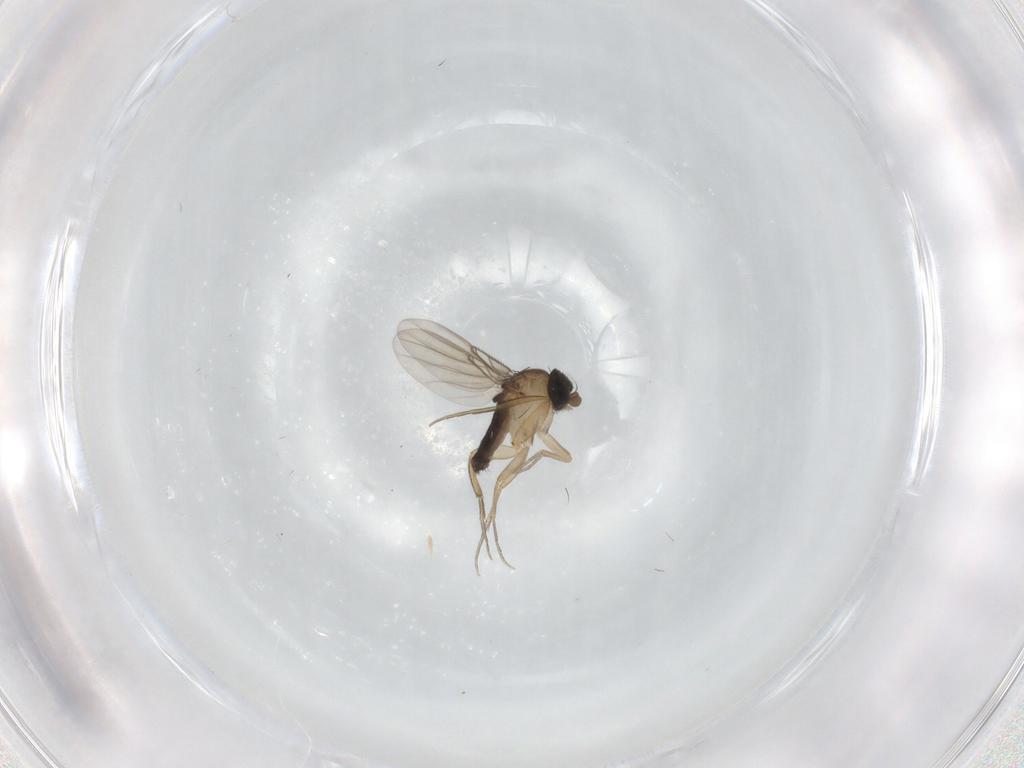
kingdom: Animalia
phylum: Arthropoda
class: Insecta
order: Diptera
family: Phoridae
